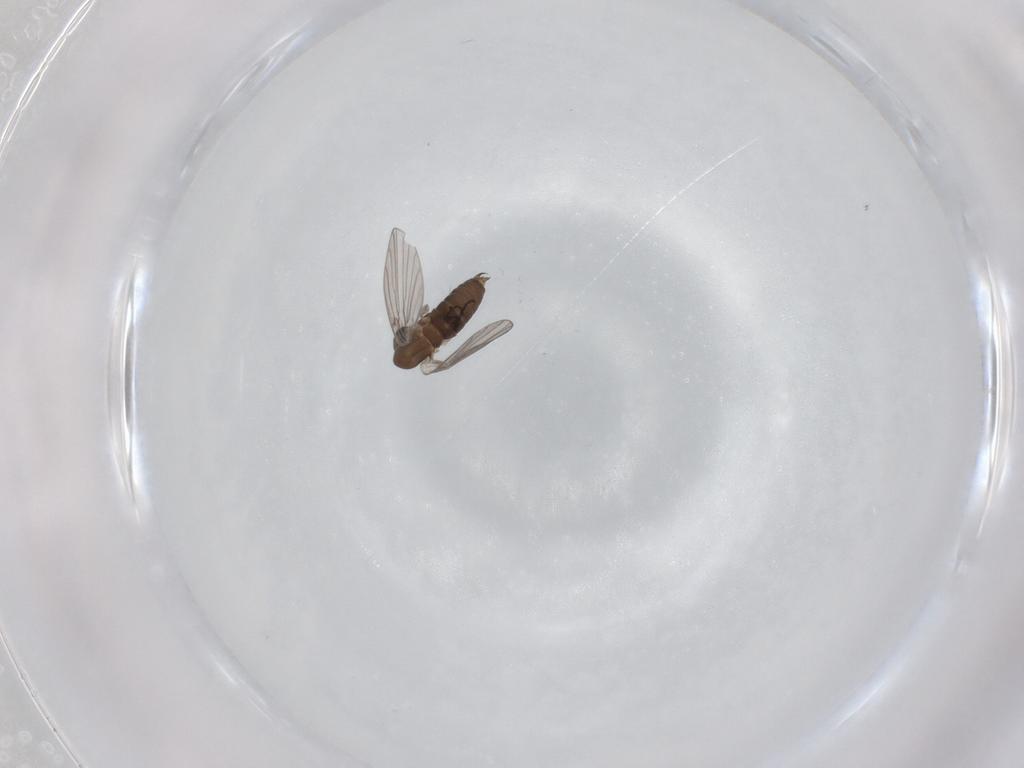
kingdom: Animalia
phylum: Arthropoda
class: Insecta
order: Diptera
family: Chironomidae
